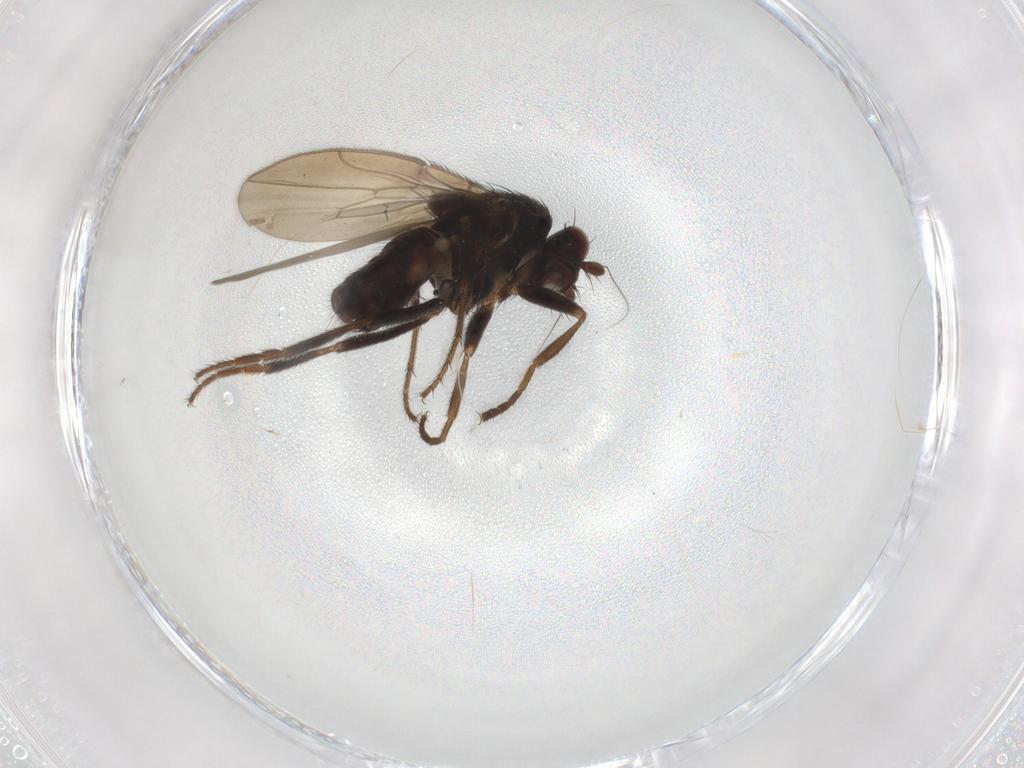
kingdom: Animalia
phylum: Arthropoda
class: Insecta
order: Diptera
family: Sphaeroceridae
